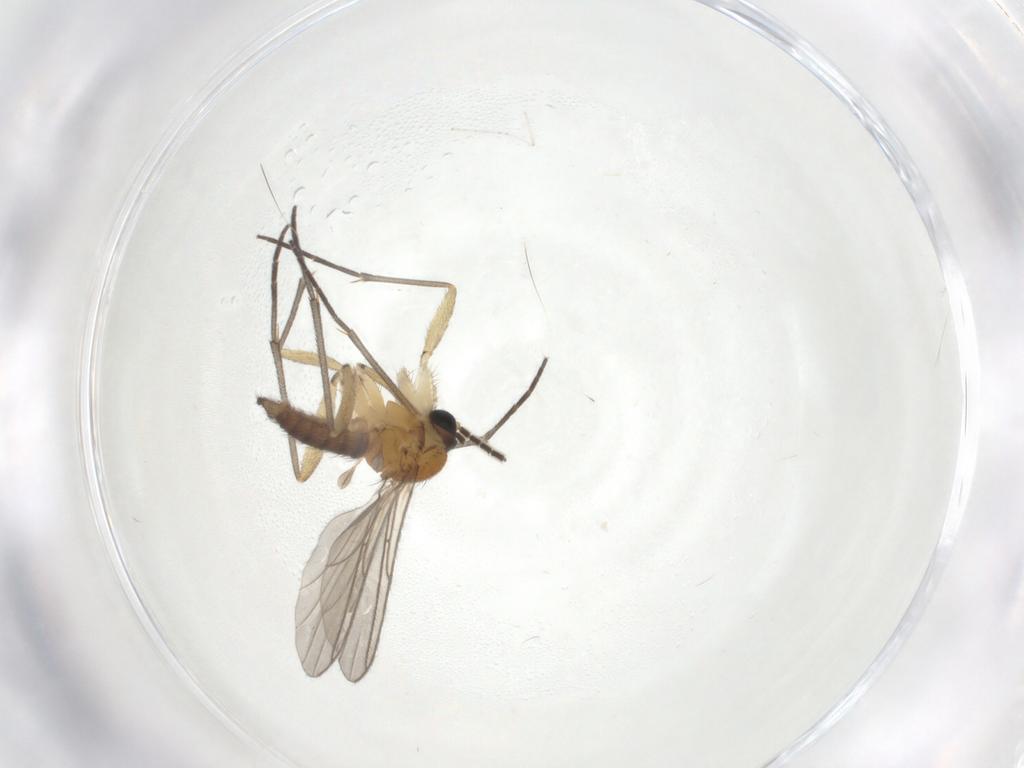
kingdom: Animalia
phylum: Arthropoda
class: Insecta
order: Diptera
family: Sciaridae
